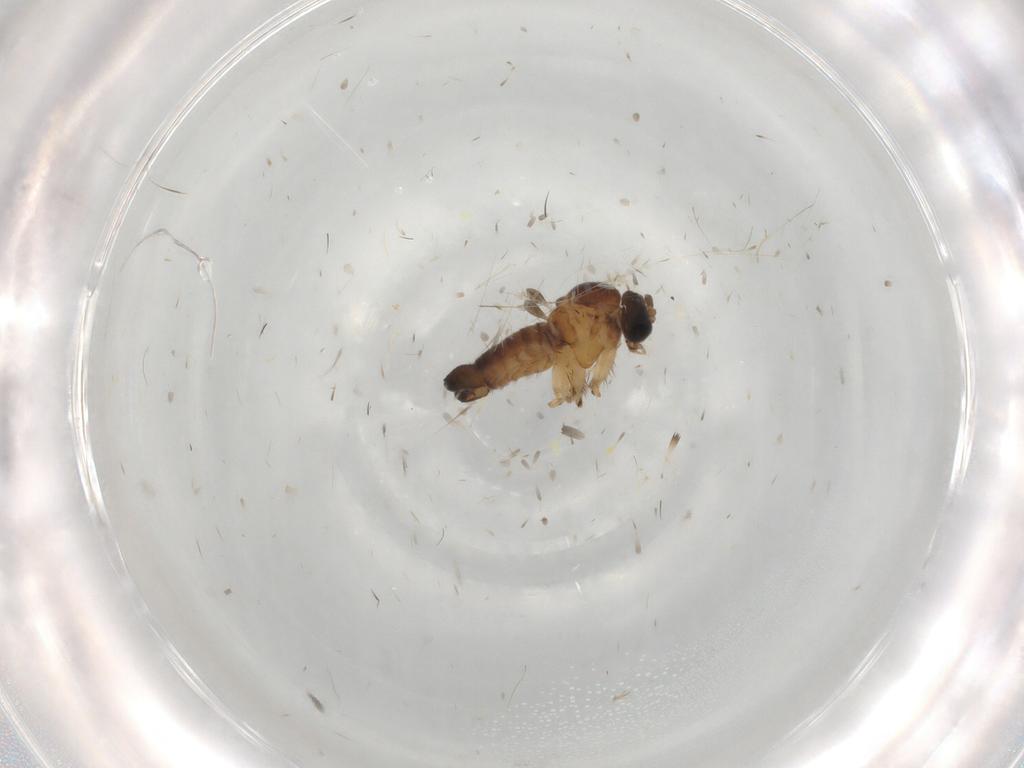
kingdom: Animalia
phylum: Arthropoda
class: Insecta
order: Diptera
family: Sciaridae
